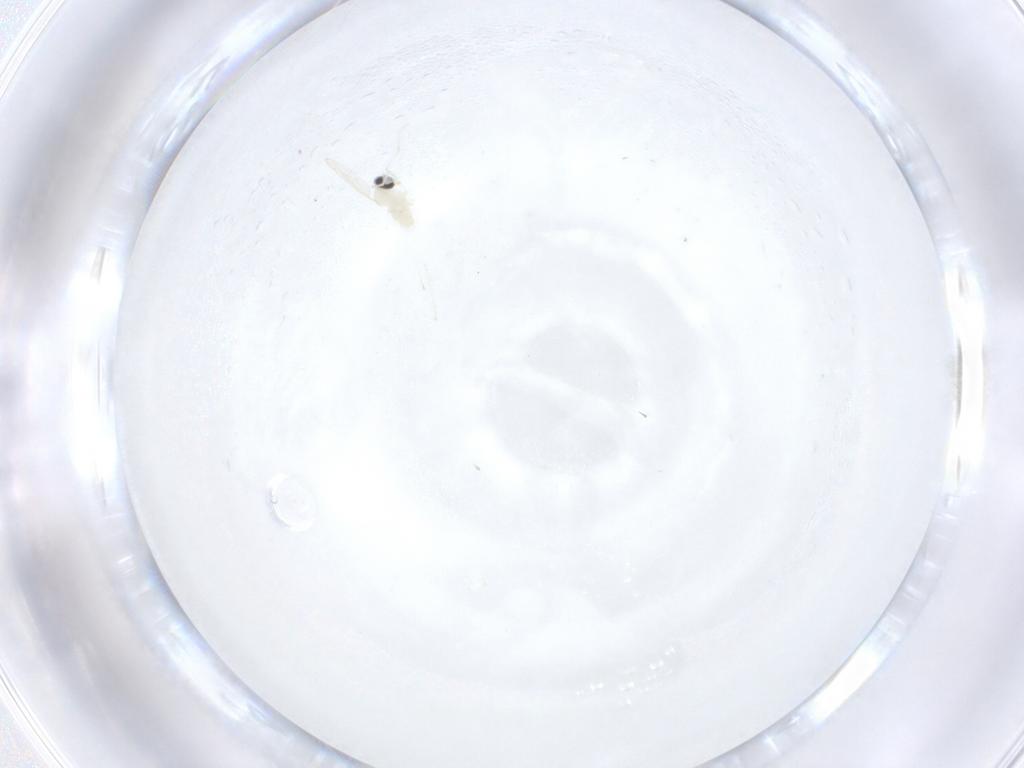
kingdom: Animalia
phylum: Arthropoda
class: Insecta
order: Diptera
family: Cecidomyiidae
